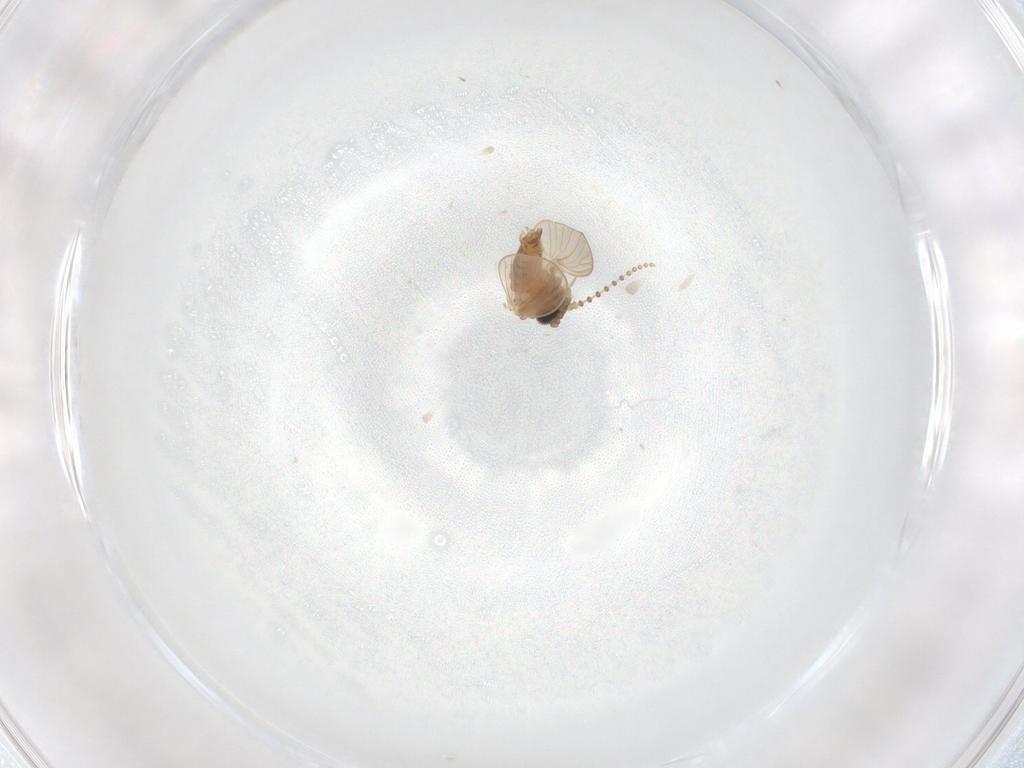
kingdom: Animalia
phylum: Arthropoda
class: Insecta
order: Diptera
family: Psychodidae
